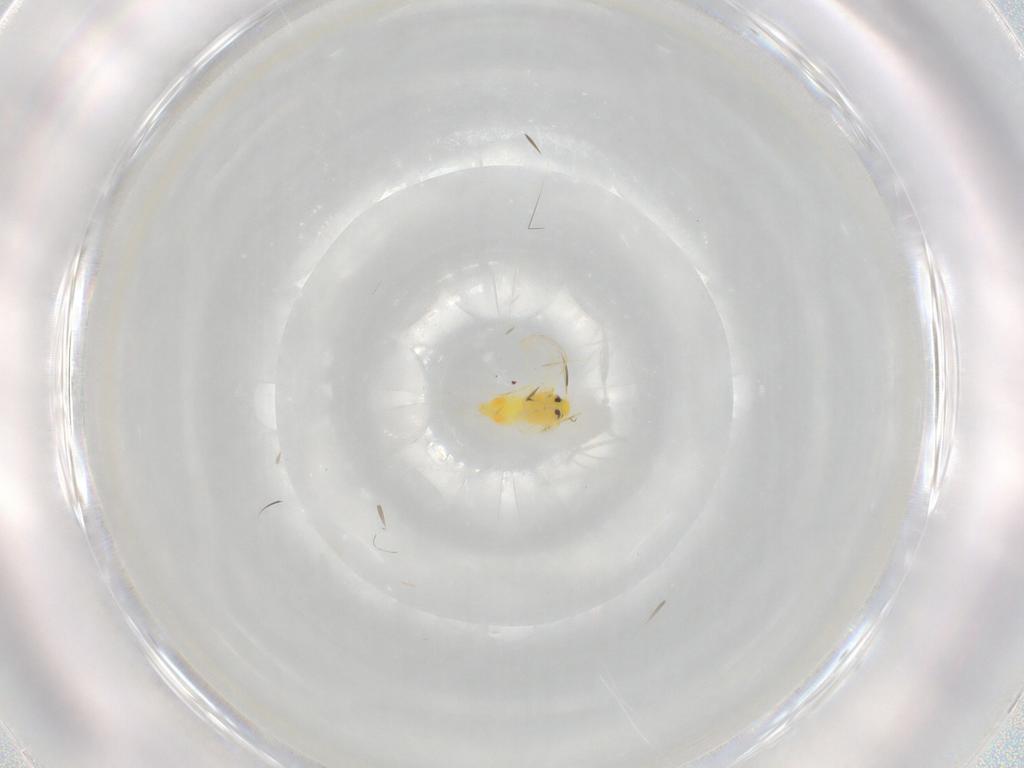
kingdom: Animalia
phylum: Arthropoda
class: Insecta
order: Hemiptera
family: Aleyrodidae
